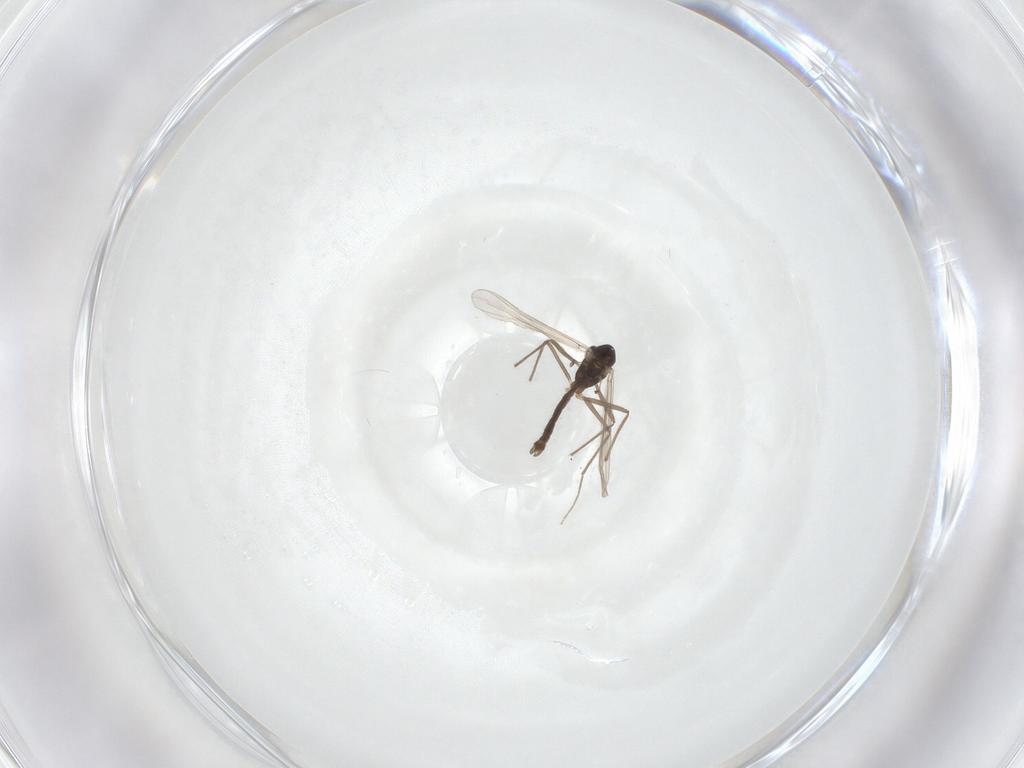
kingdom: Animalia
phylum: Arthropoda
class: Insecta
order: Diptera
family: Chironomidae
